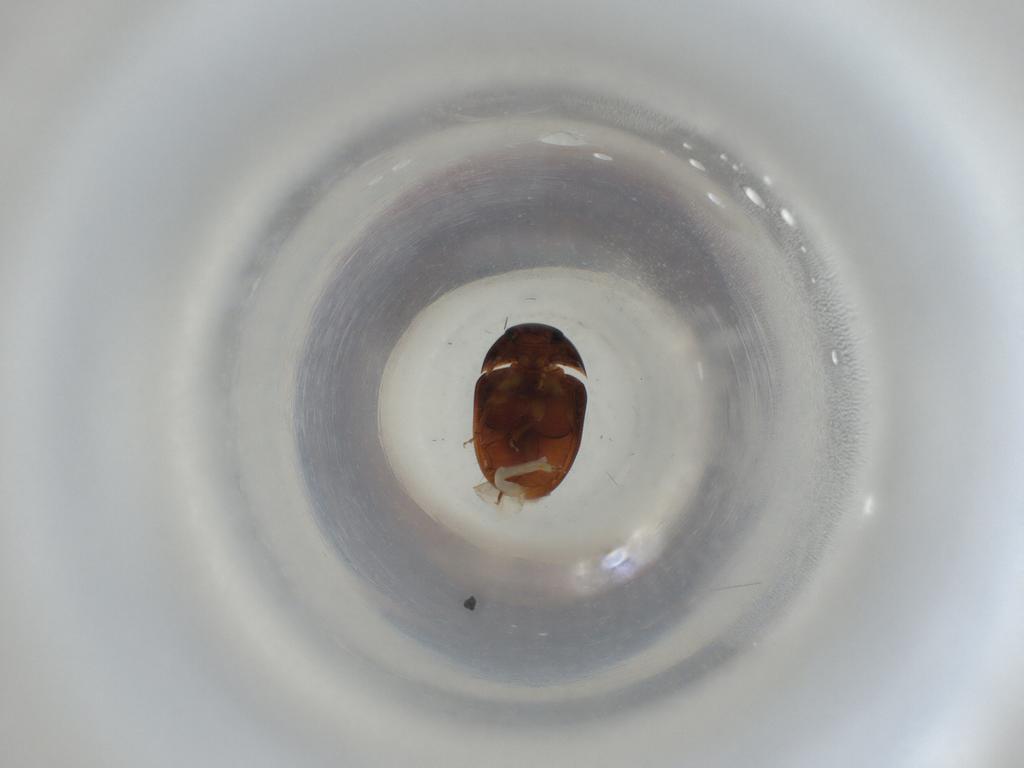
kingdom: Animalia
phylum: Arthropoda
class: Insecta
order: Coleoptera
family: Phalacridae
